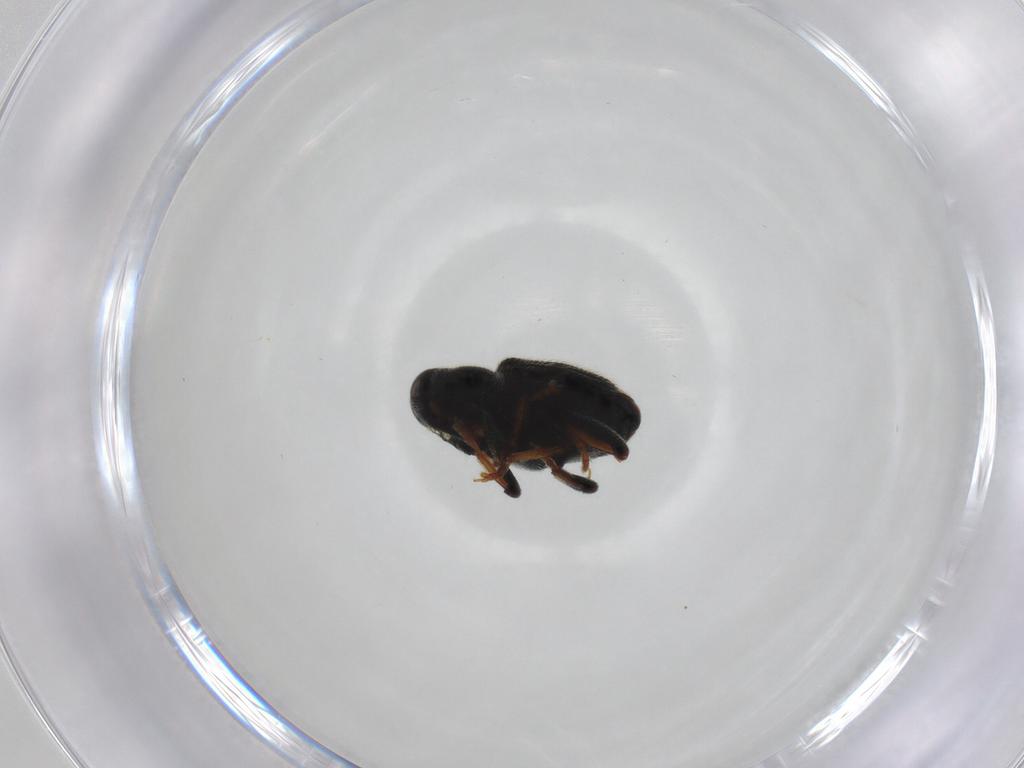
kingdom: Animalia
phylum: Arthropoda
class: Insecta
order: Coleoptera
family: Curculionidae
